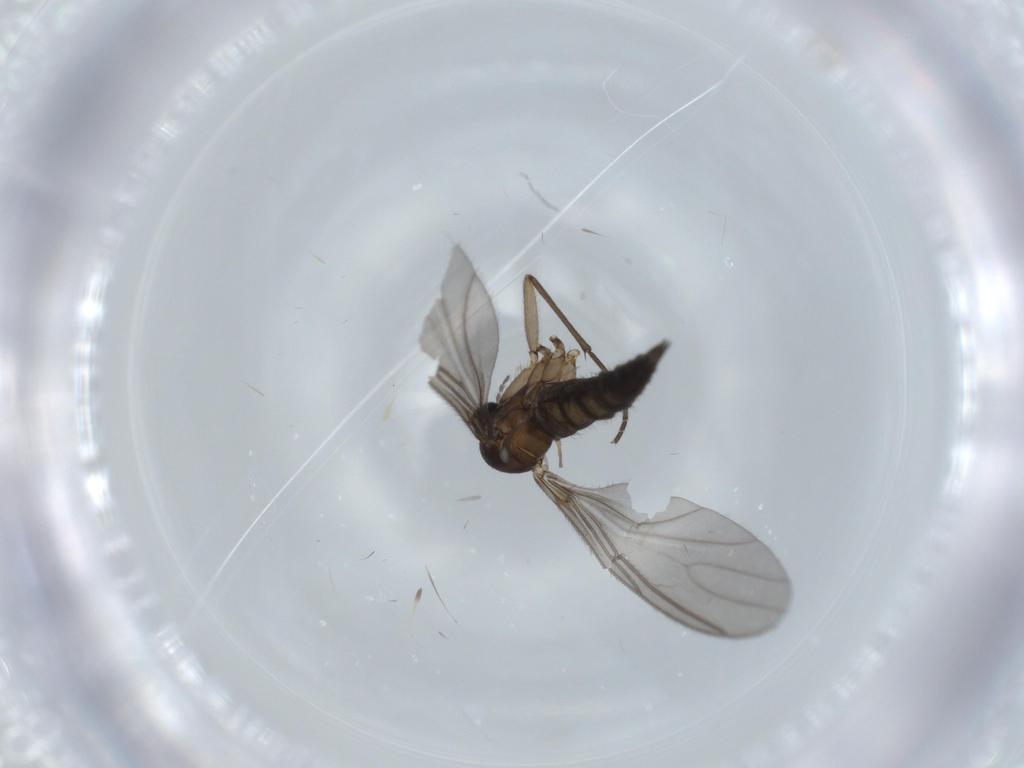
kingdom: Animalia
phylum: Arthropoda
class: Insecta
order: Diptera
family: Sciaridae
